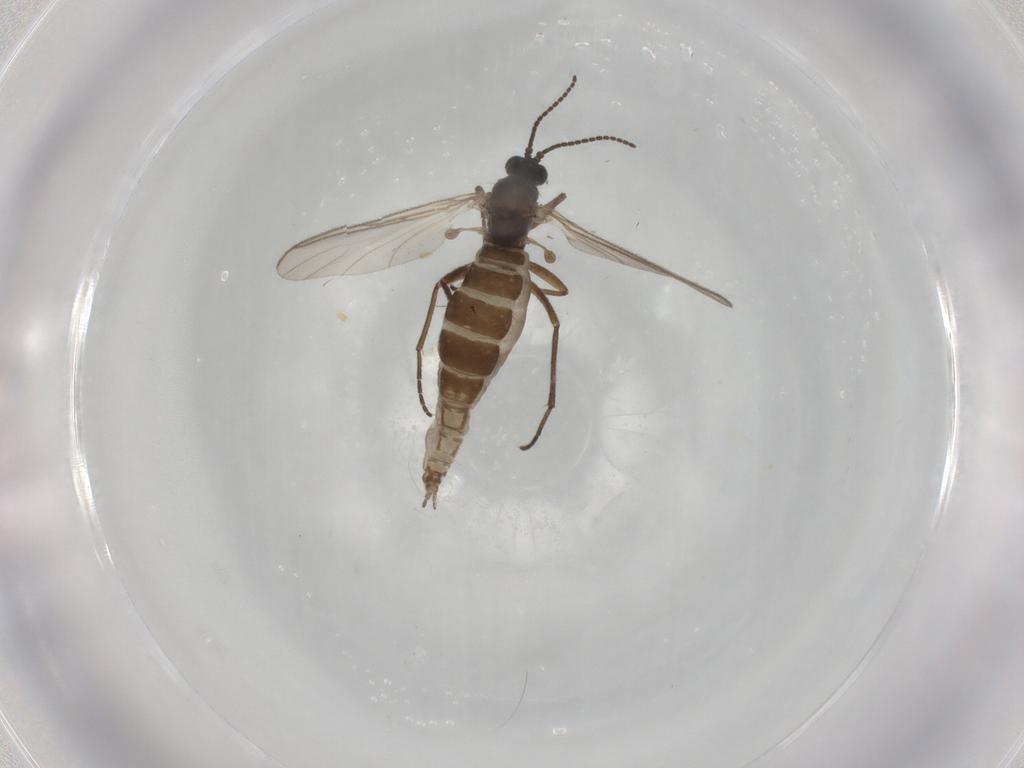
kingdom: Animalia
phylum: Arthropoda
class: Insecta
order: Diptera
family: Sciaridae
